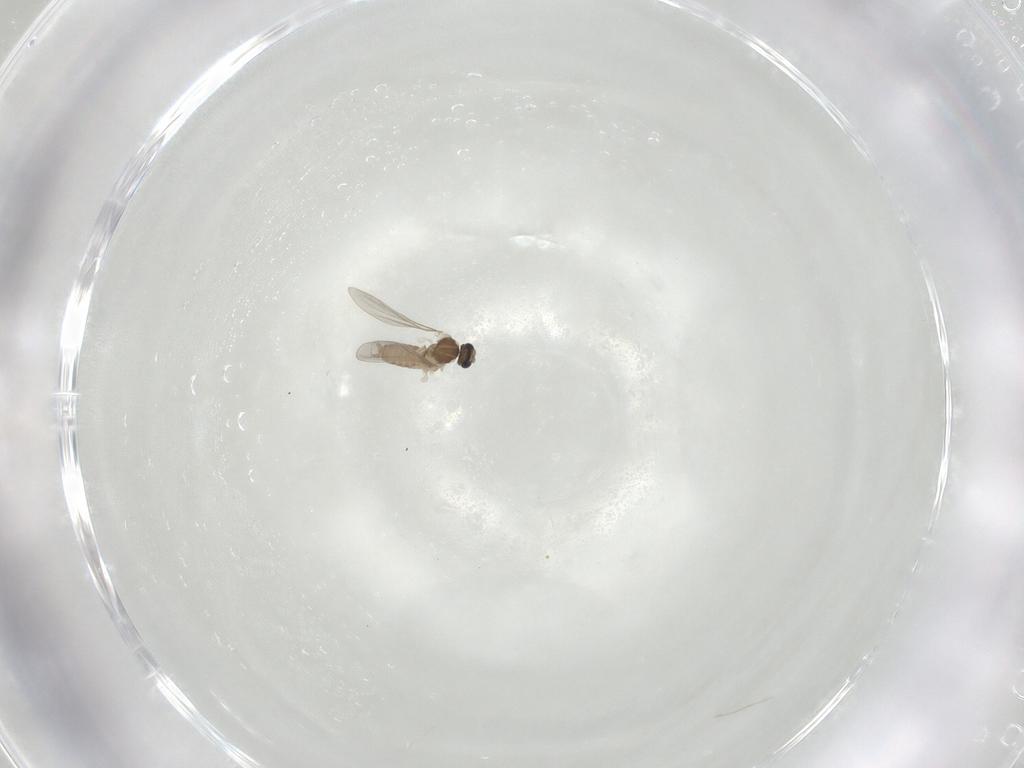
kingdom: Animalia
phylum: Arthropoda
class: Insecta
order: Diptera
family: Cecidomyiidae
